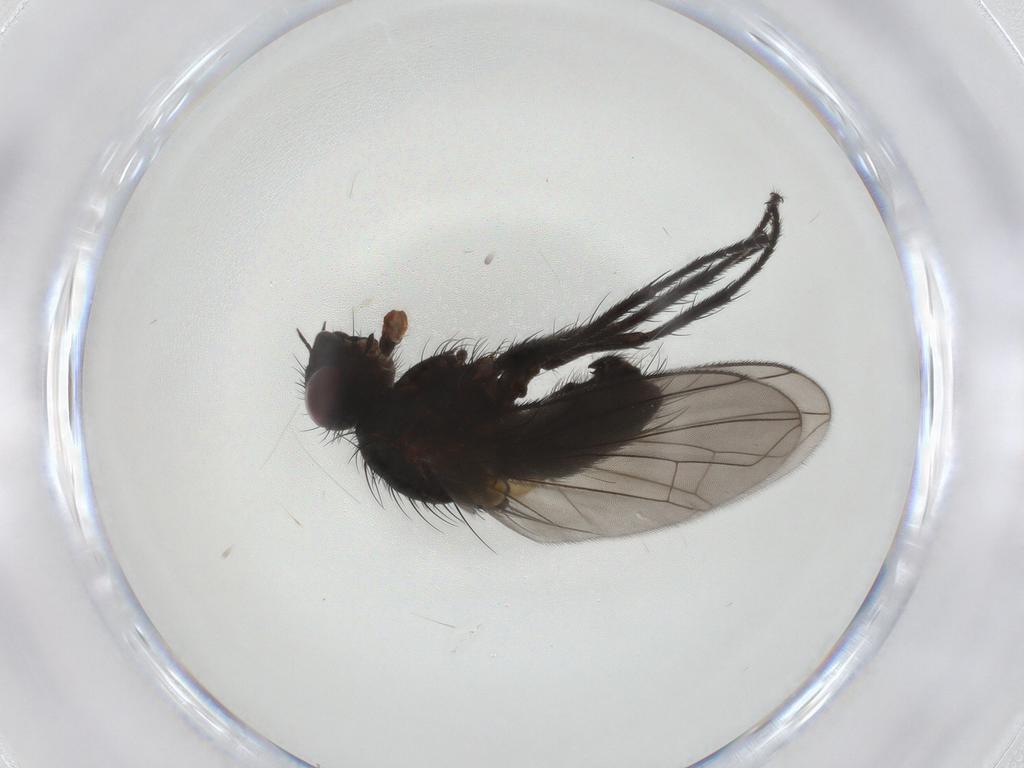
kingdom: Animalia
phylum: Arthropoda
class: Insecta
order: Diptera
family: Tachinidae
